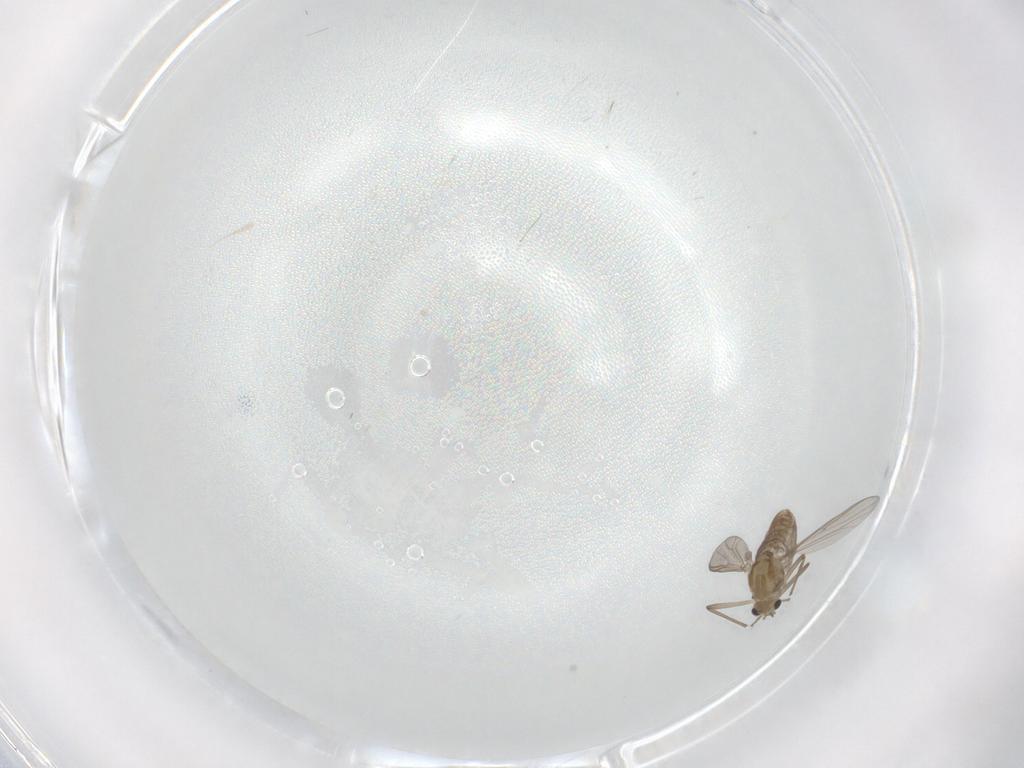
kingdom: Animalia
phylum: Arthropoda
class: Insecta
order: Diptera
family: Chironomidae
